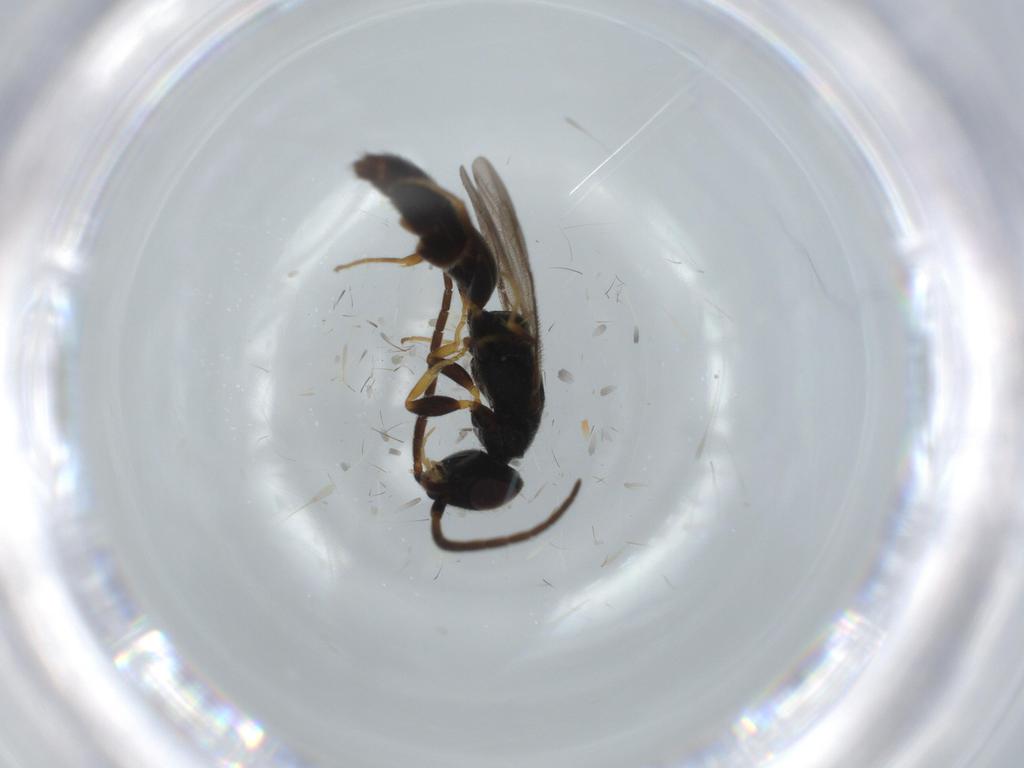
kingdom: Animalia
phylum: Arthropoda
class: Insecta
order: Hymenoptera
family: Bethylidae
